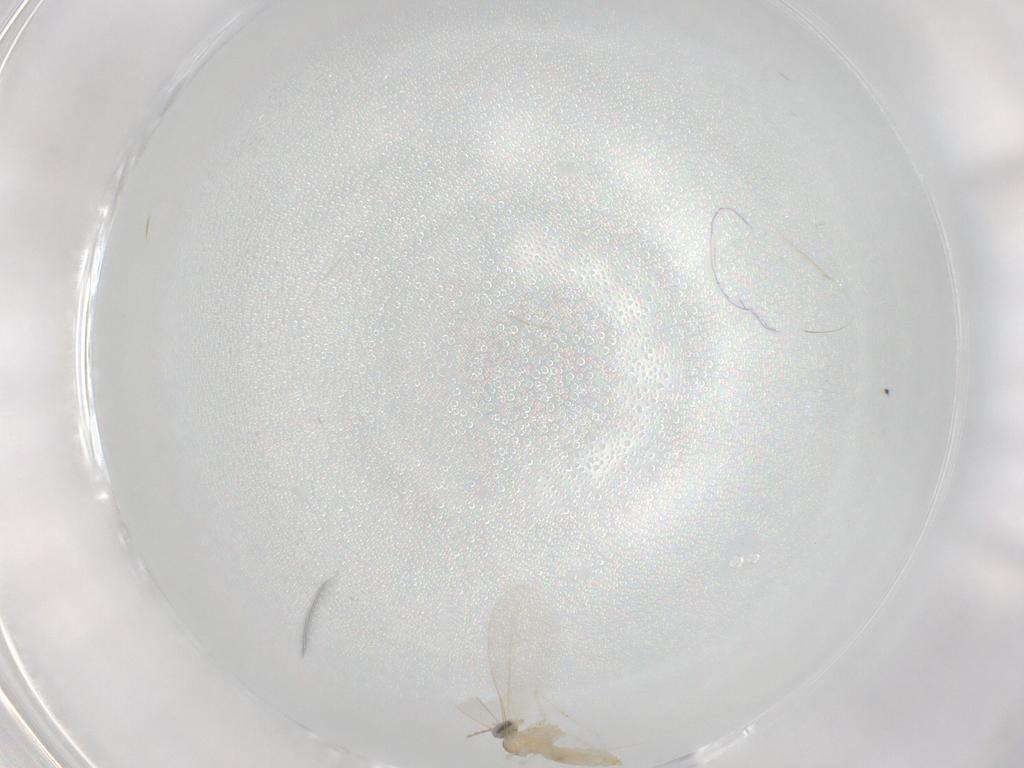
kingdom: Animalia
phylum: Arthropoda
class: Insecta
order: Diptera
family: Cecidomyiidae
